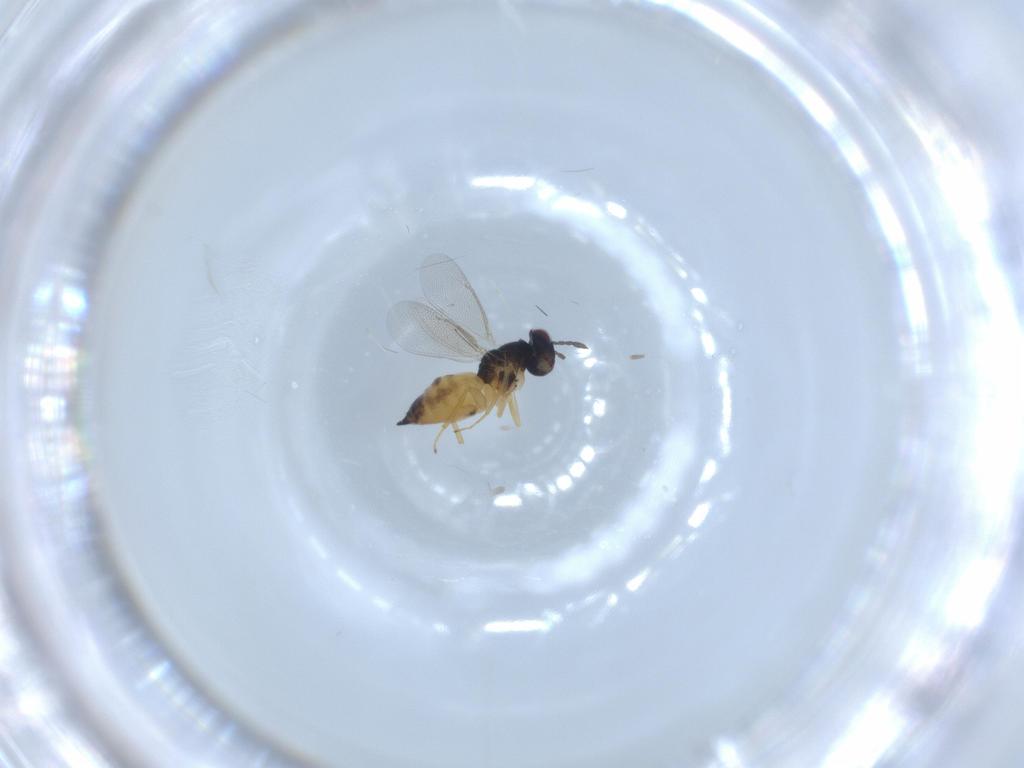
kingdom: Animalia
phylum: Arthropoda
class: Insecta
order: Hymenoptera
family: Eulophidae
